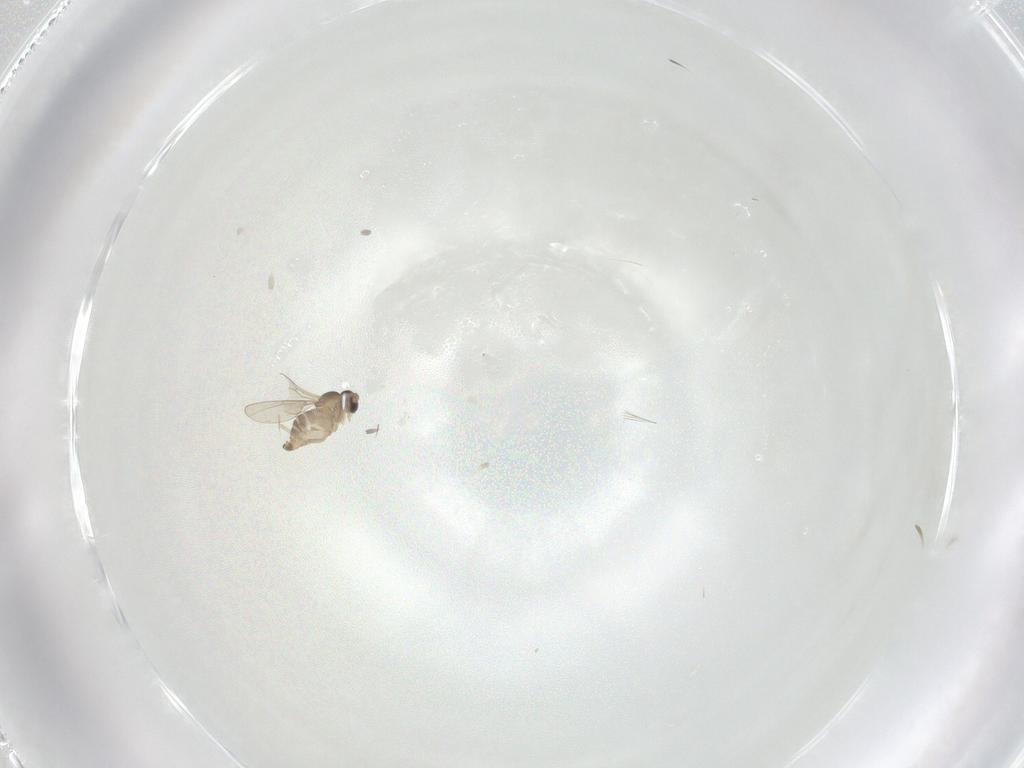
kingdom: Animalia
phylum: Arthropoda
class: Insecta
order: Diptera
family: Cecidomyiidae
